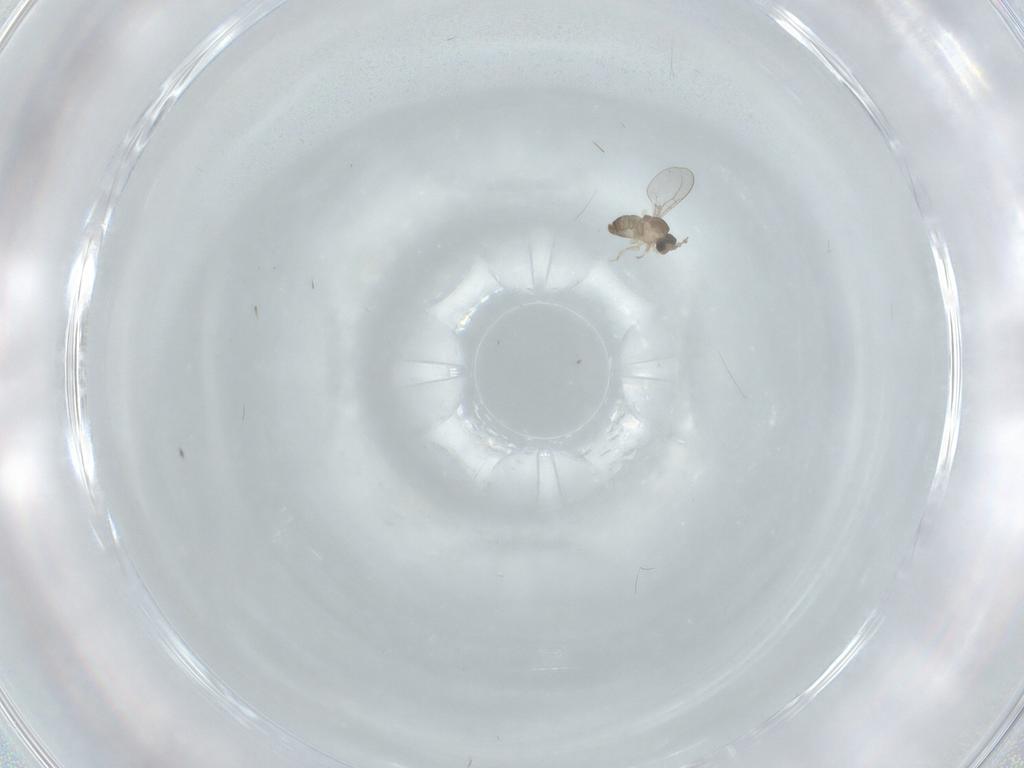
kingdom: Animalia
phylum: Arthropoda
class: Insecta
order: Diptera
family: Cecidomyiidae
